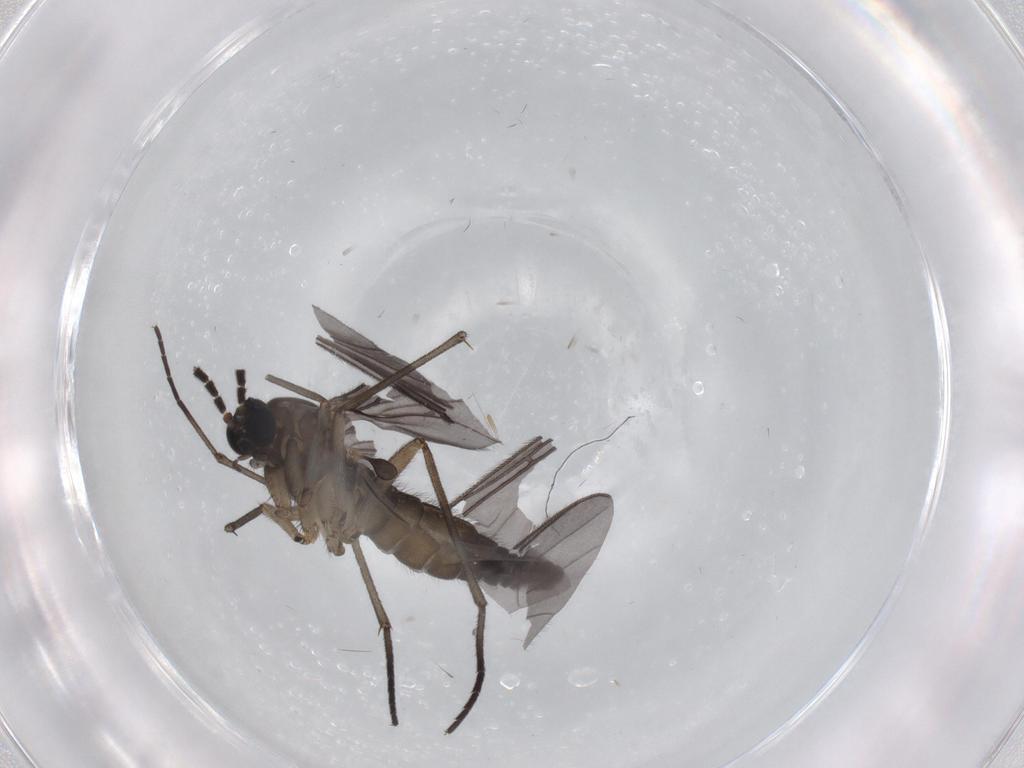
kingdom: Animalia
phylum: Arthropoda
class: Insecta
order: Diptera
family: Sciaridae
